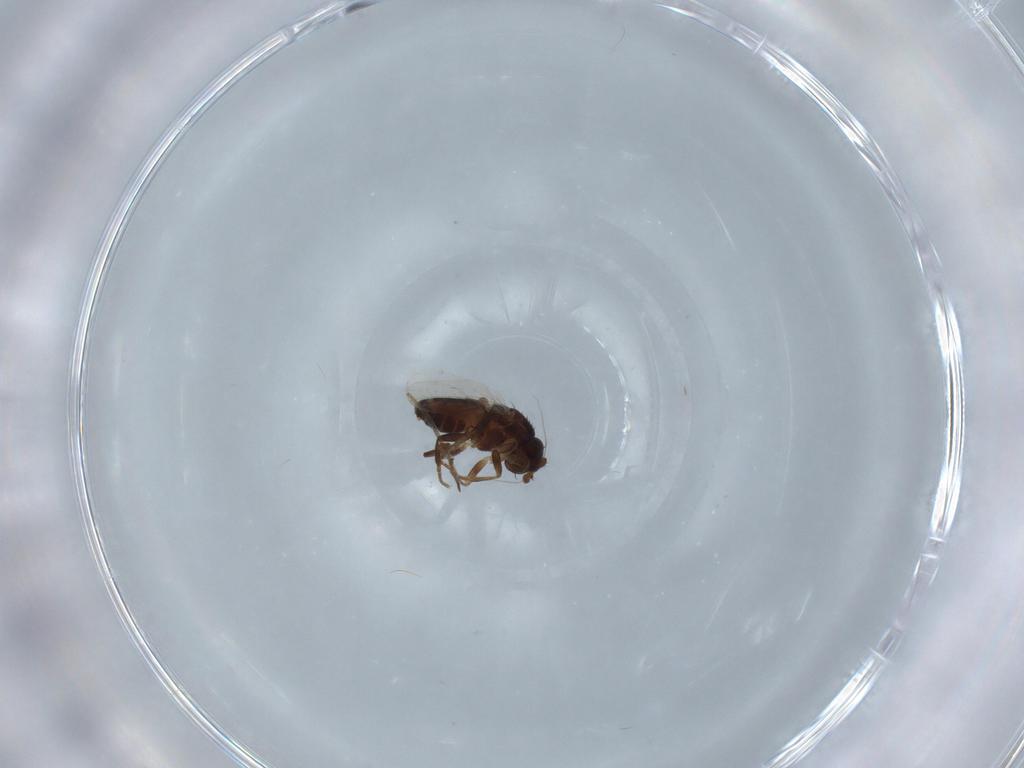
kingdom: Animalia
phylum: Arthropoda
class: Insecta
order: Diptera
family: Sphaeroceridae
